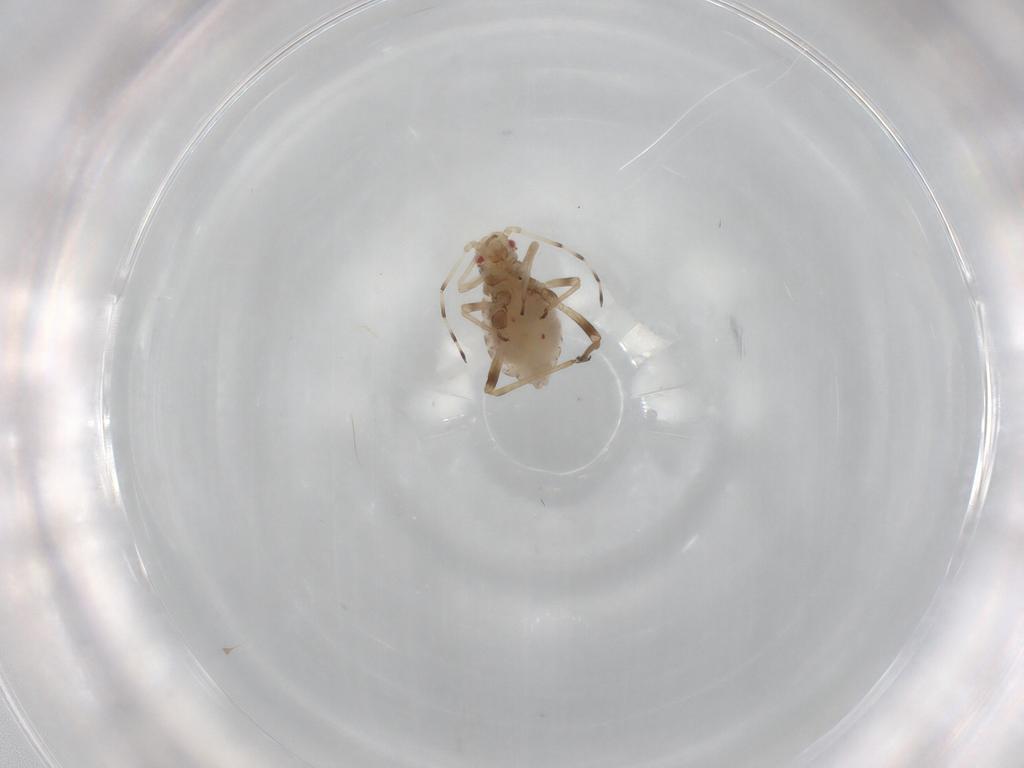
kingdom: Animalia
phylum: Arthropoda
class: Insecta
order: Hemiptera
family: Aphididae
